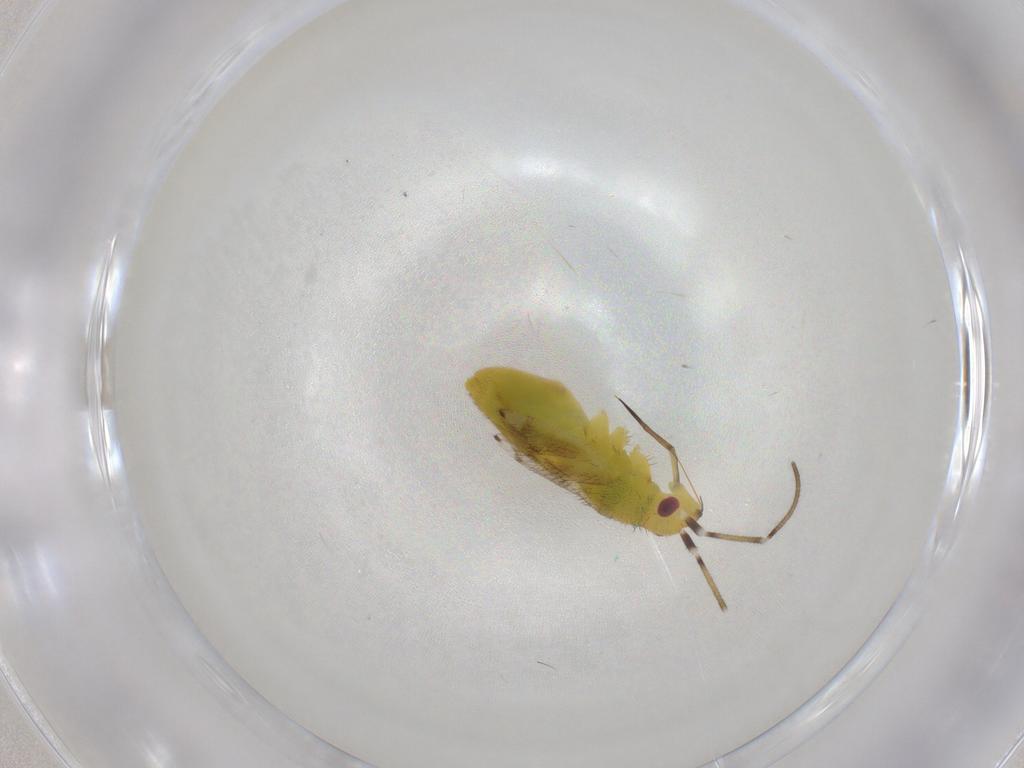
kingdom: Animalia
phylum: Arthropoda
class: Insecta
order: Hemiptera
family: Miridae
